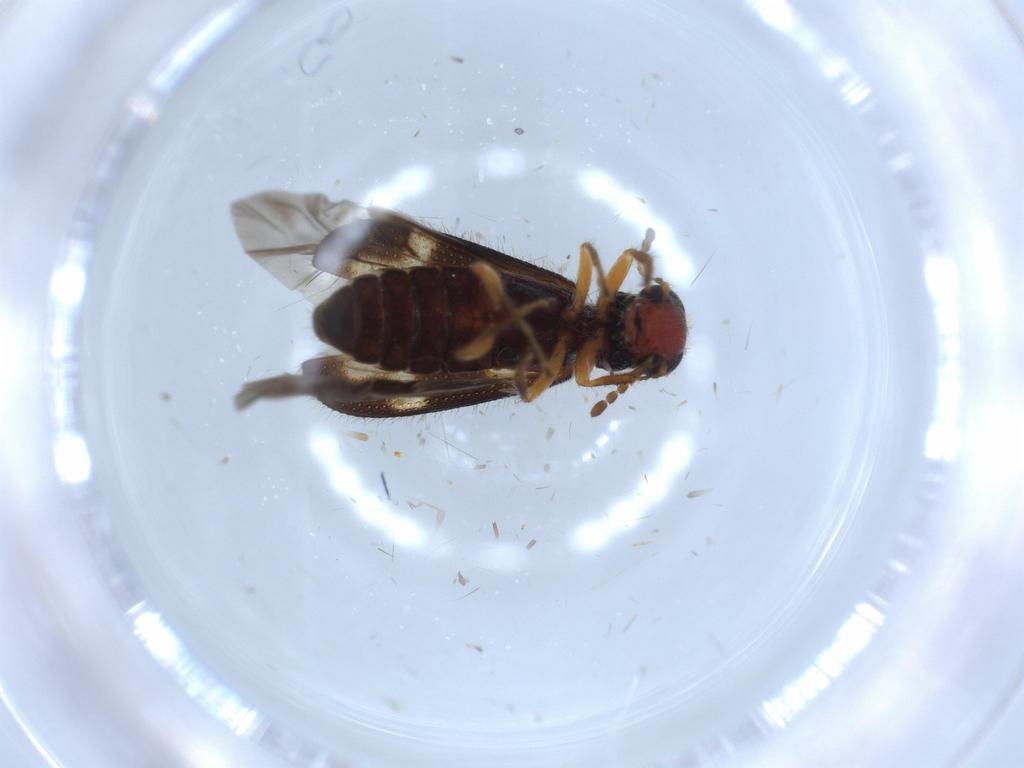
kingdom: Animalia
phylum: Arthropoda
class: Insecta
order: Coleoptera
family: Cleridae
